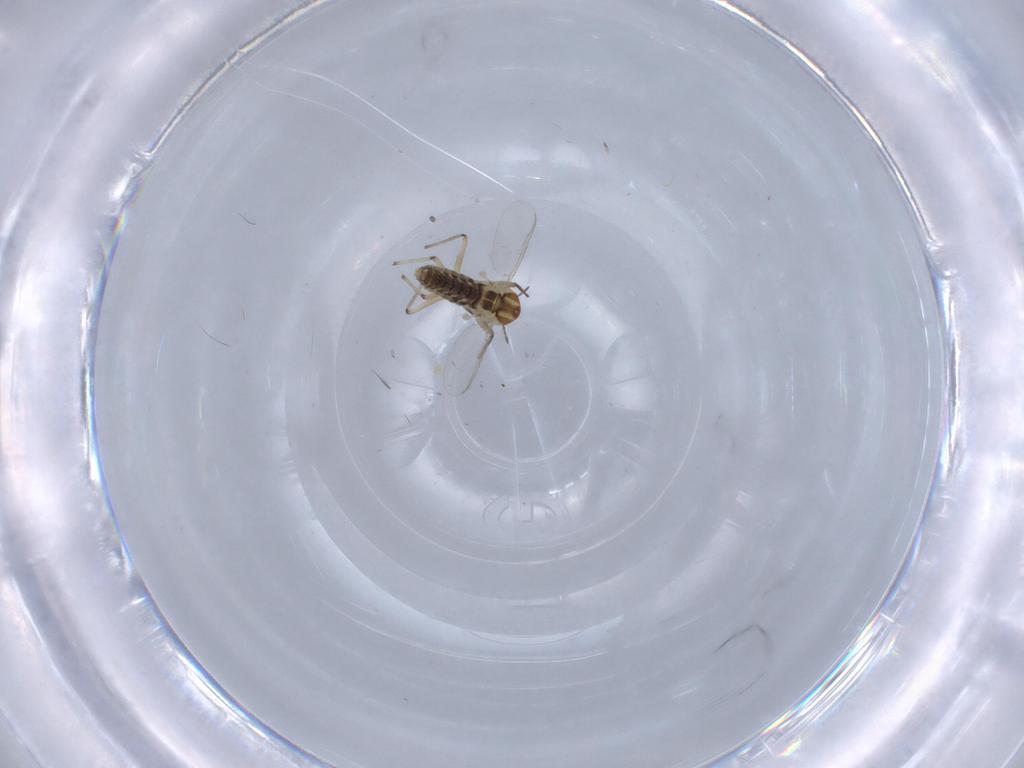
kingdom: Animalia
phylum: Arthropoda
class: Insecta
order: Diptera
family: Chironomidae
